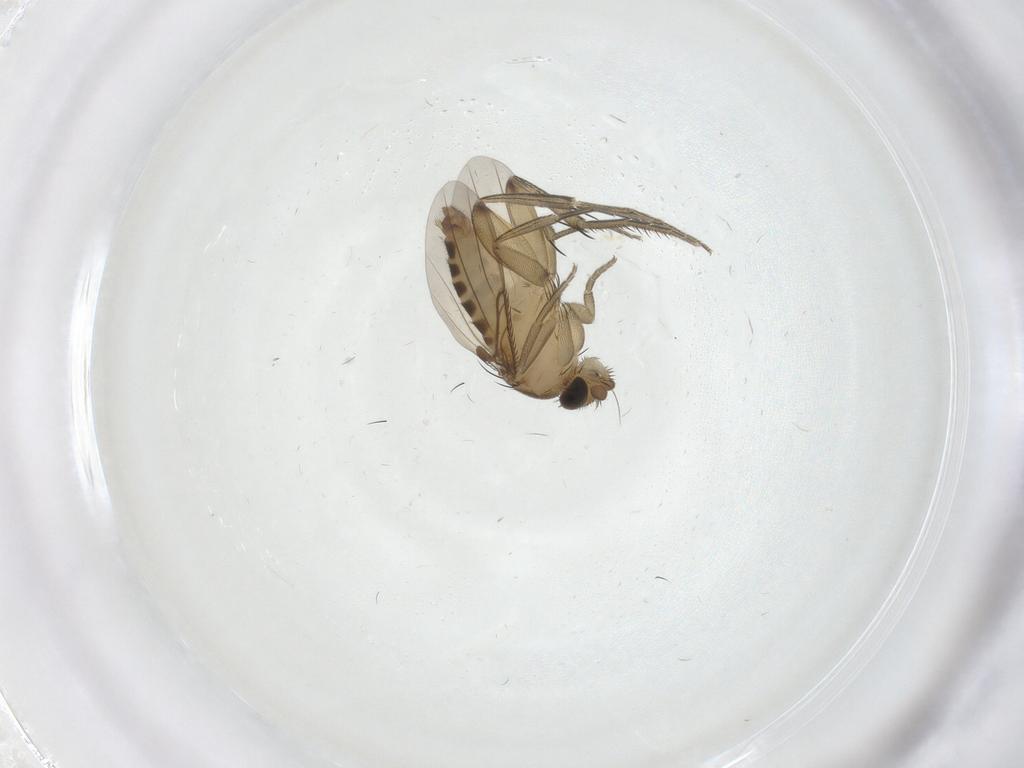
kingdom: Animalia
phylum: Arthropoda
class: Insecta
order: Diptera
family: Phoridae
